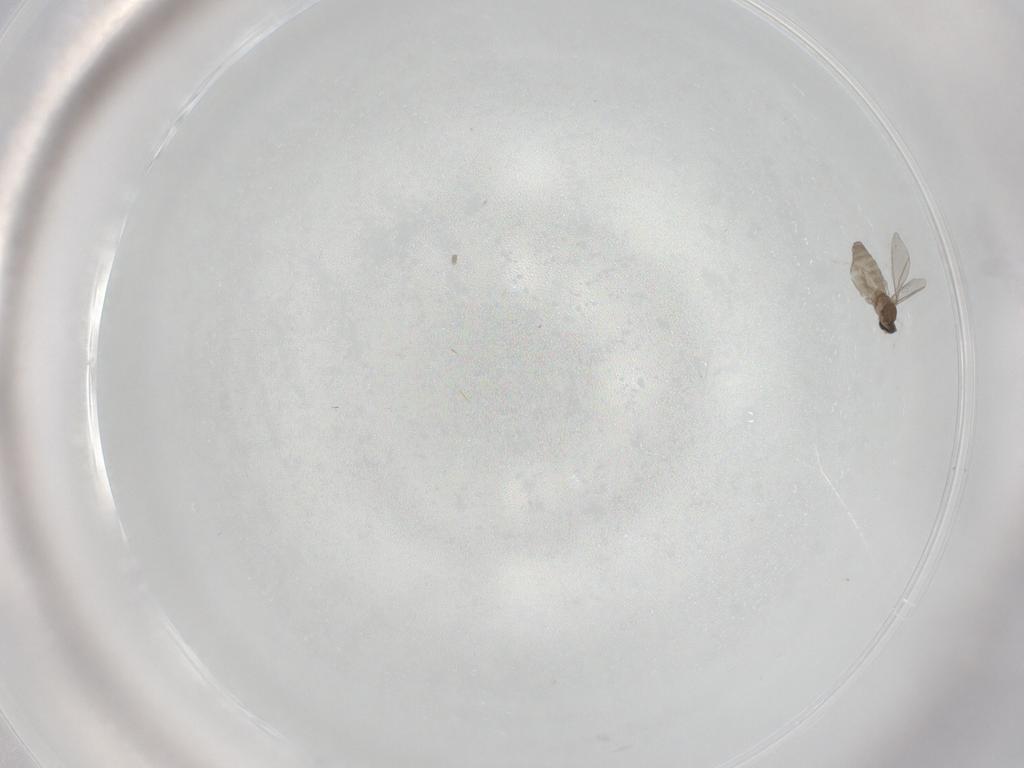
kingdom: Animalia
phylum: Arthropoda
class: Insecta
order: Diptera
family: Cecidomyiidae
